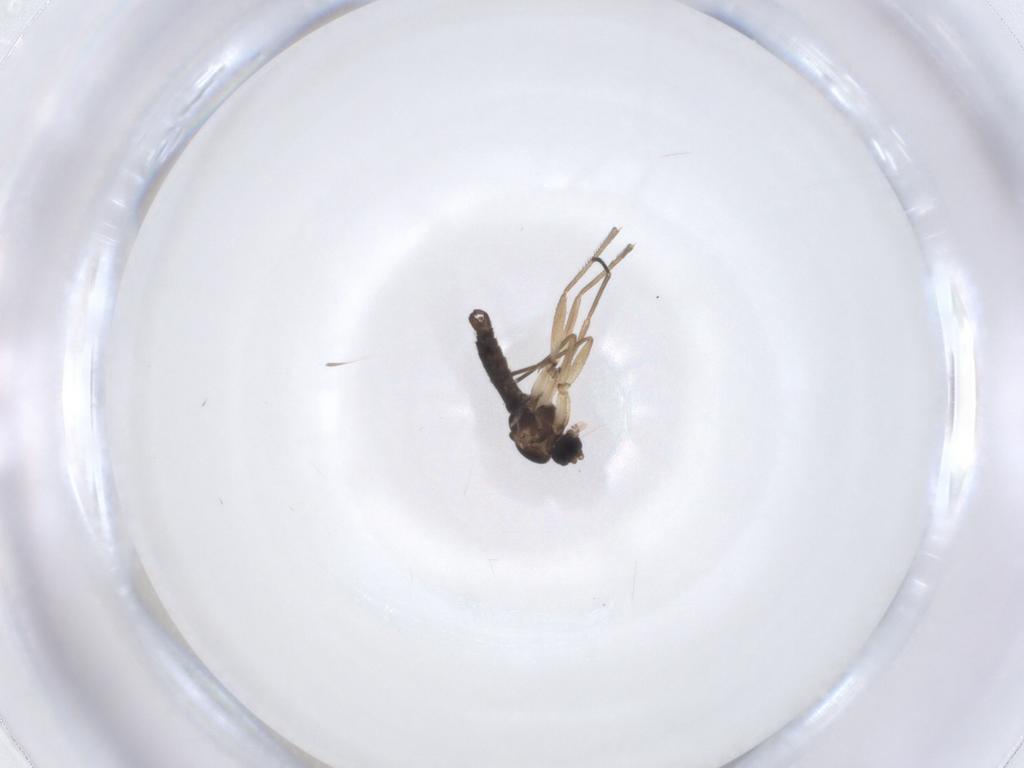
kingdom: Animalia
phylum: Arthropoda
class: Insecta
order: Diptera
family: Sciaridae
